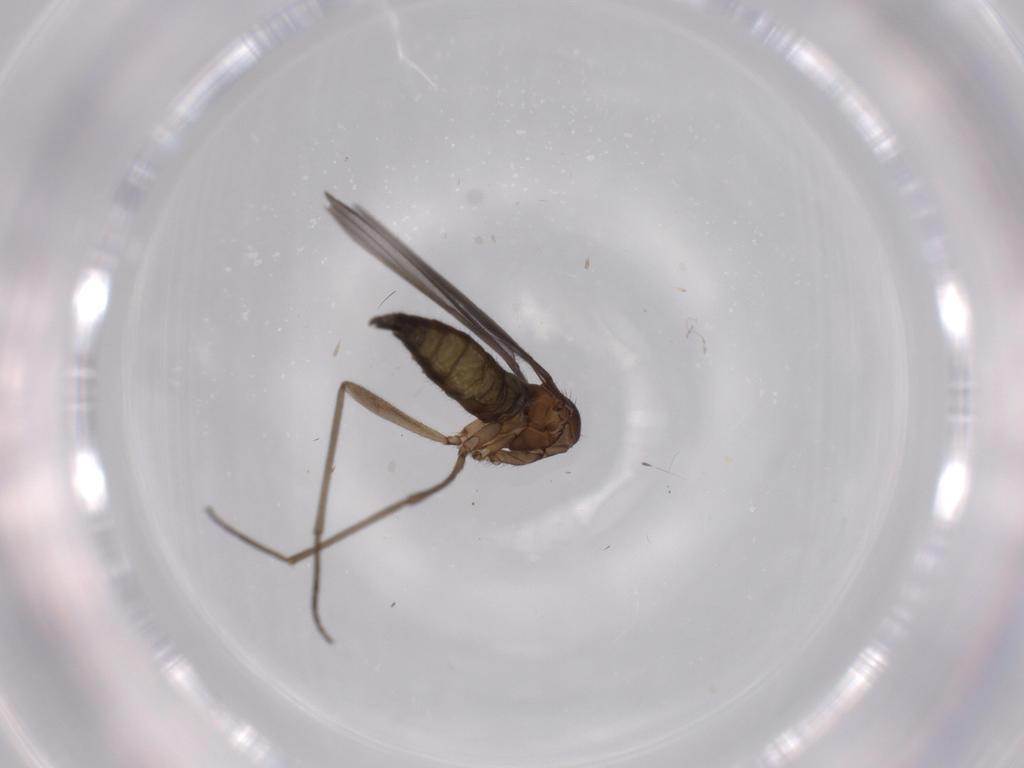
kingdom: Animalia
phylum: Arthropoda
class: Insecta
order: Diptera
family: Sciaridae
